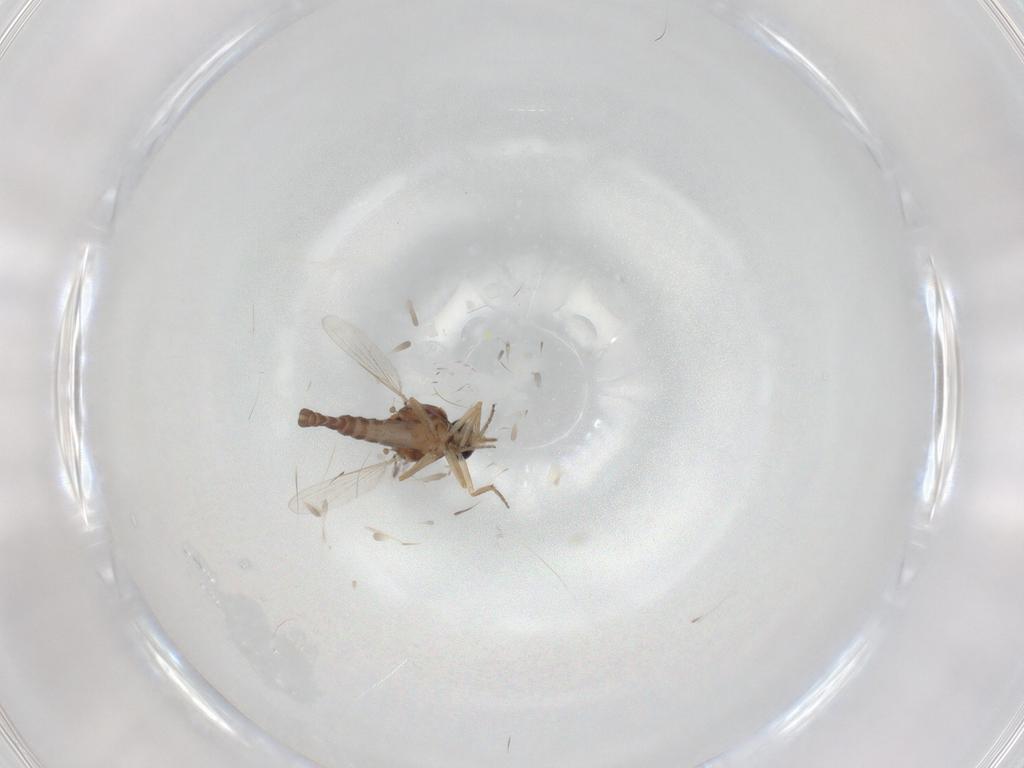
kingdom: Animalia
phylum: Arthropoda
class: Insecta
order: Diptera
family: Ceratopogonidae
